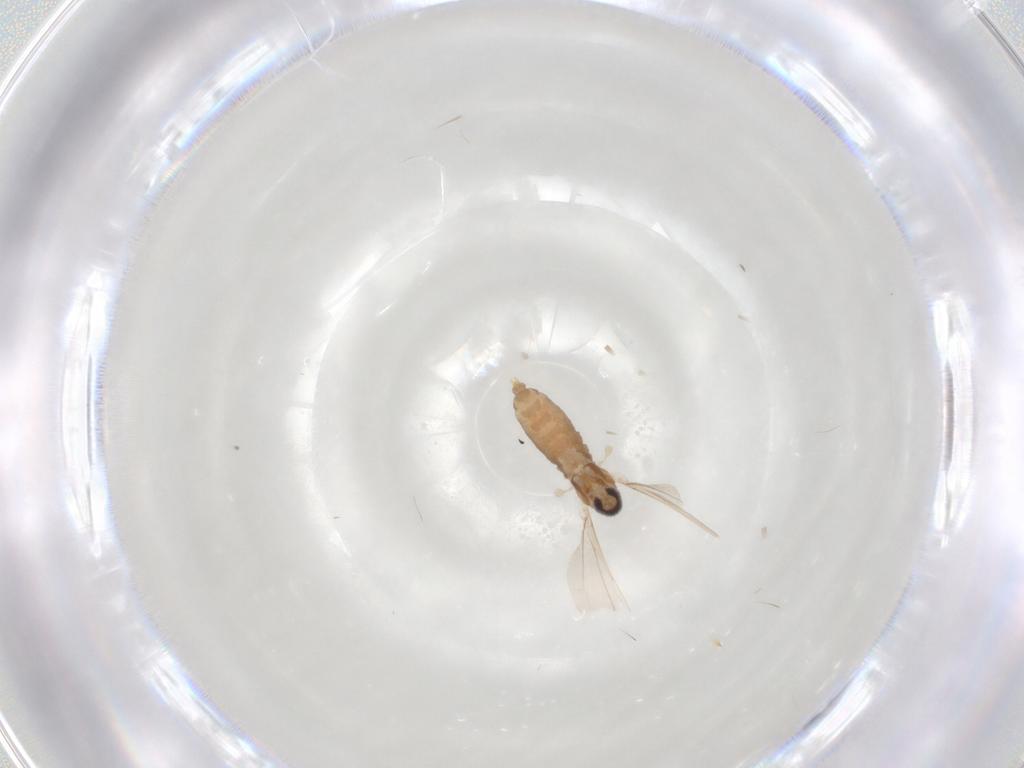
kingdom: Animalia
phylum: Arthropoda
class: Insecta
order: Diptera
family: Cecidomyiidae
